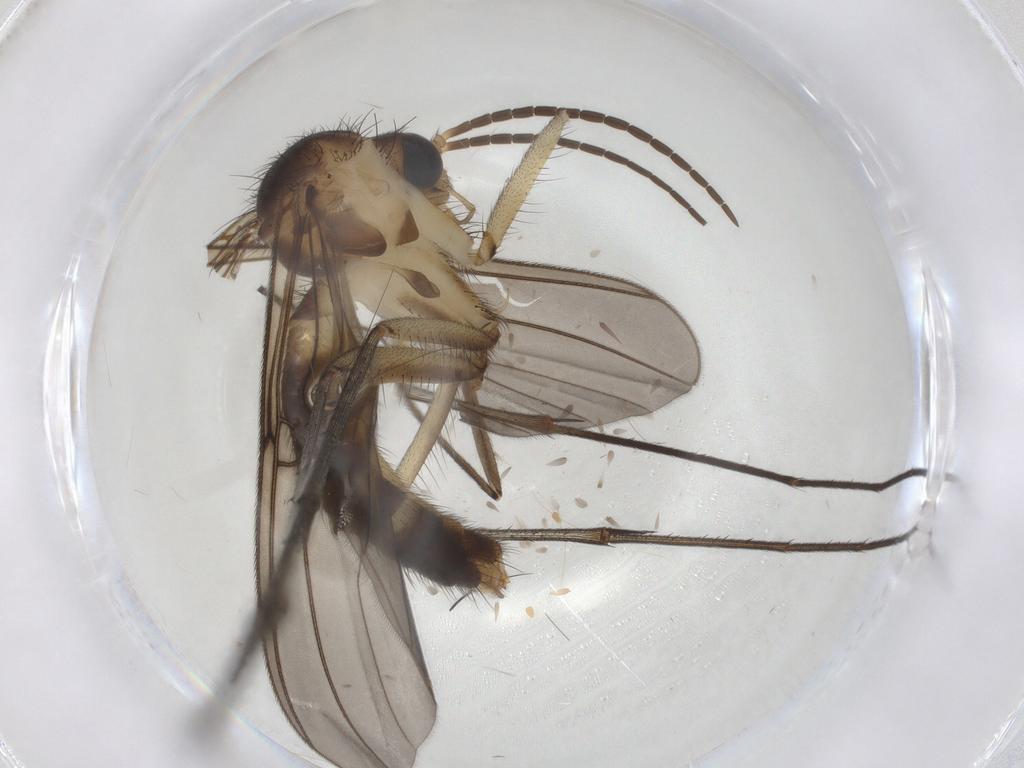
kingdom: Animalia
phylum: Arthropoda
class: Insecta
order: Diptera
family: Mycetophilidae
